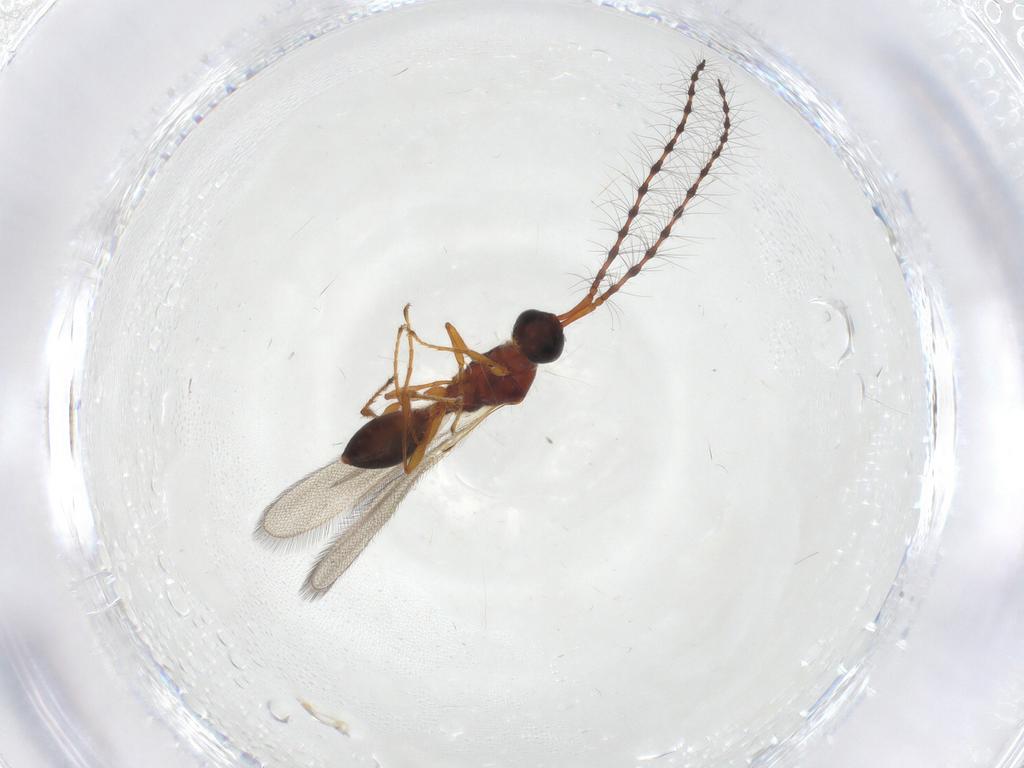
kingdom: Animalia
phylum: Arthropoda
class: Insecta
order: Hymenoptera
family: Diapriidae
